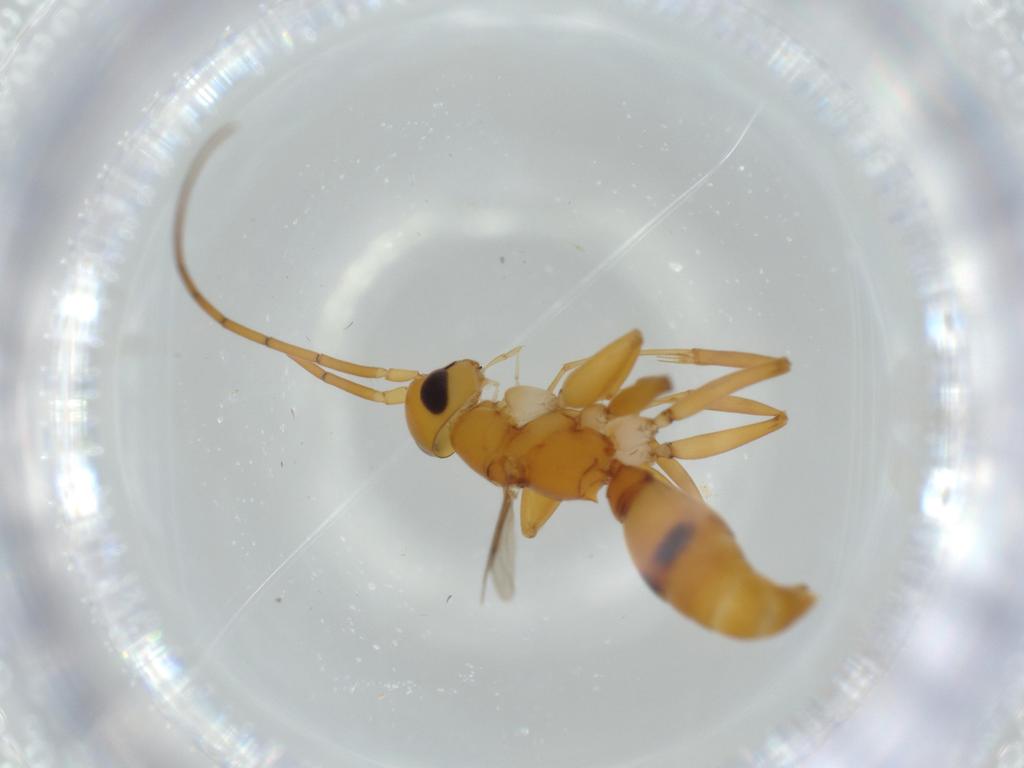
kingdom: Animalia
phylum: Arthropoda
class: Insecta
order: Hymenoptera
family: Rhopalosomatidae
